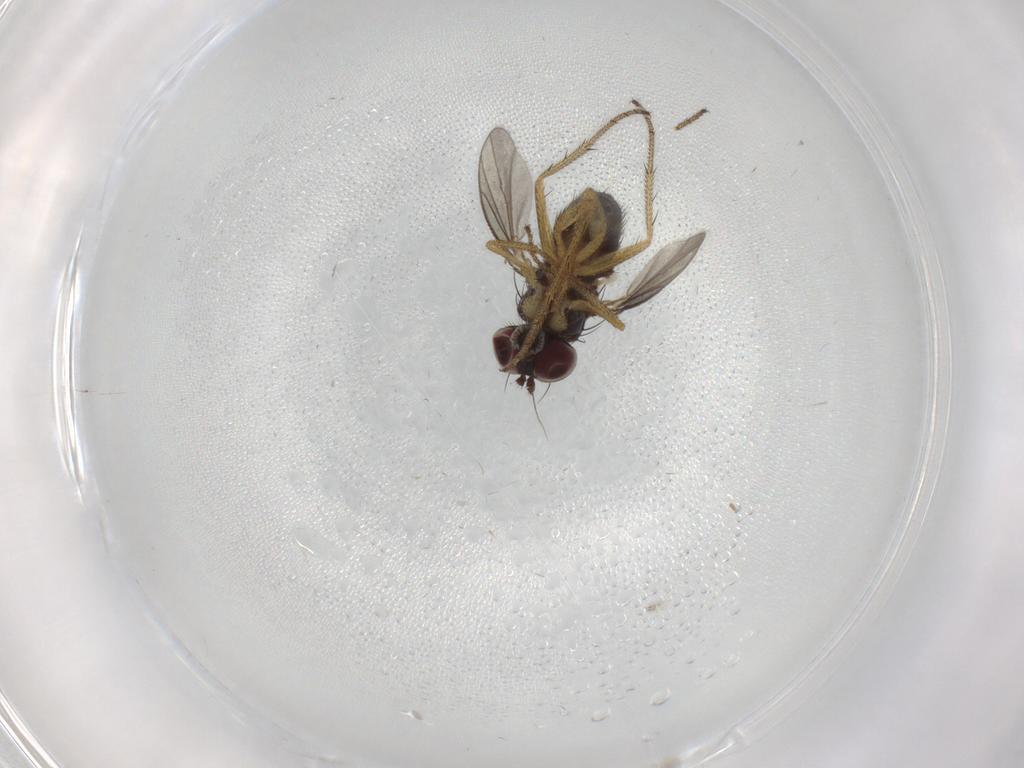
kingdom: Animalia
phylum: Arthropoda
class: Insecta
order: Diptera
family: Dolichopodidae
